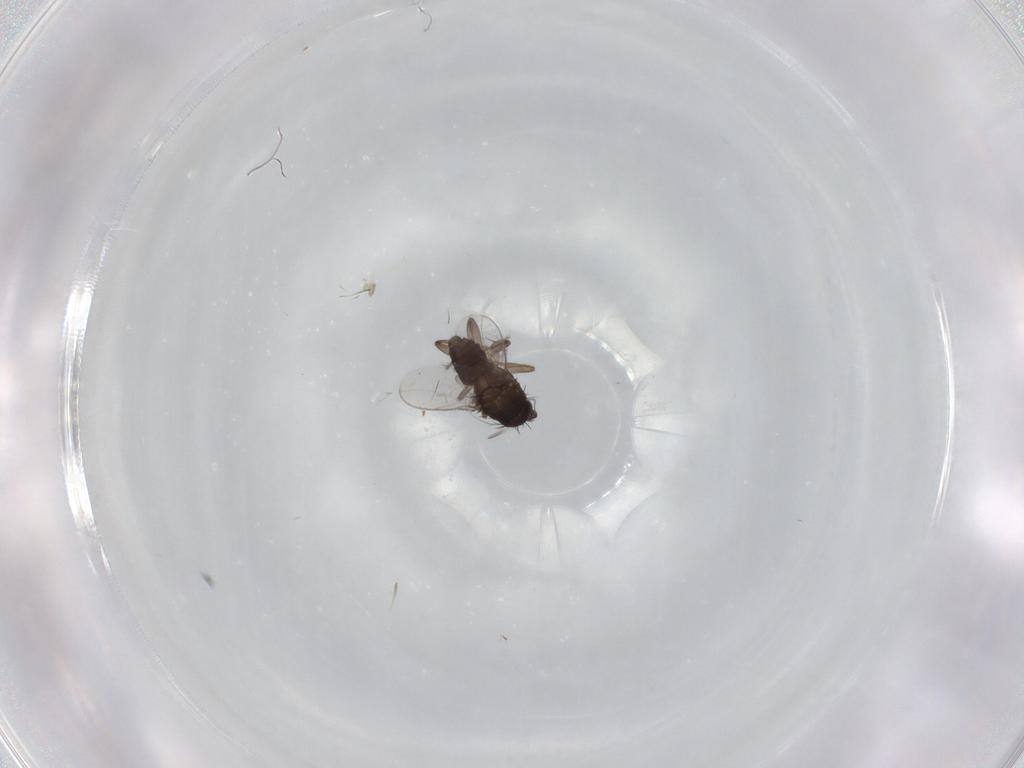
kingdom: Animalia
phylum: Arthropoda
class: Insecta
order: Diptera
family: Sphaeroceridae
